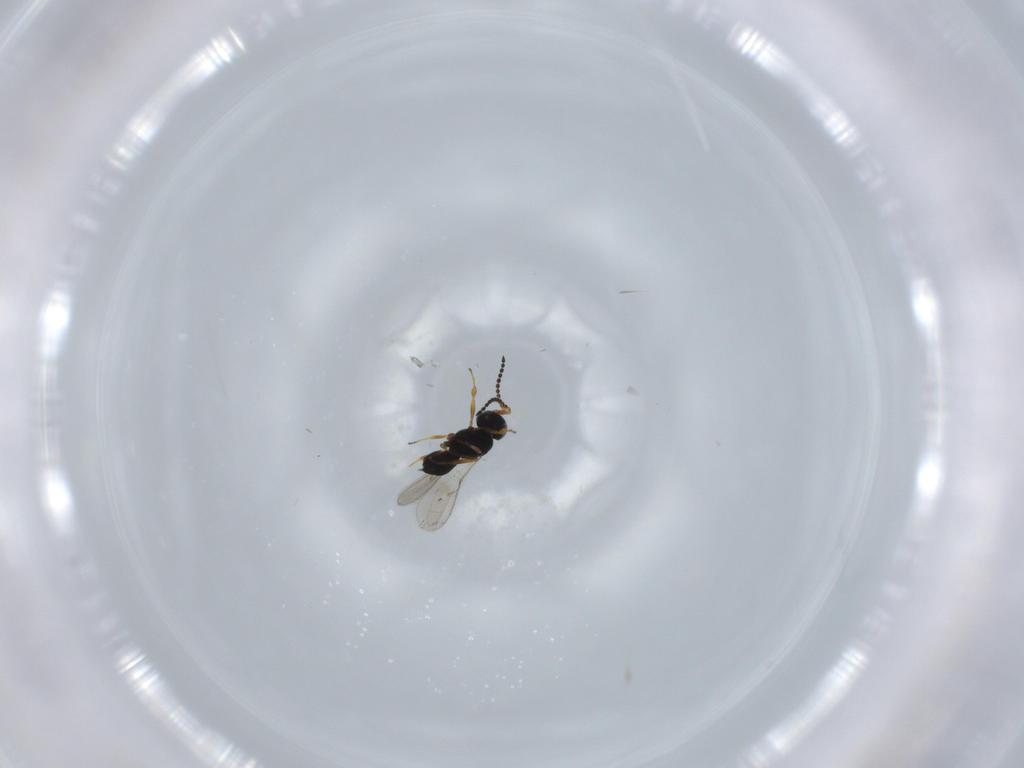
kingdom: Animalia
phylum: Arthropoda
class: Insecta
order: Hymenoptera
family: Scelionidae
